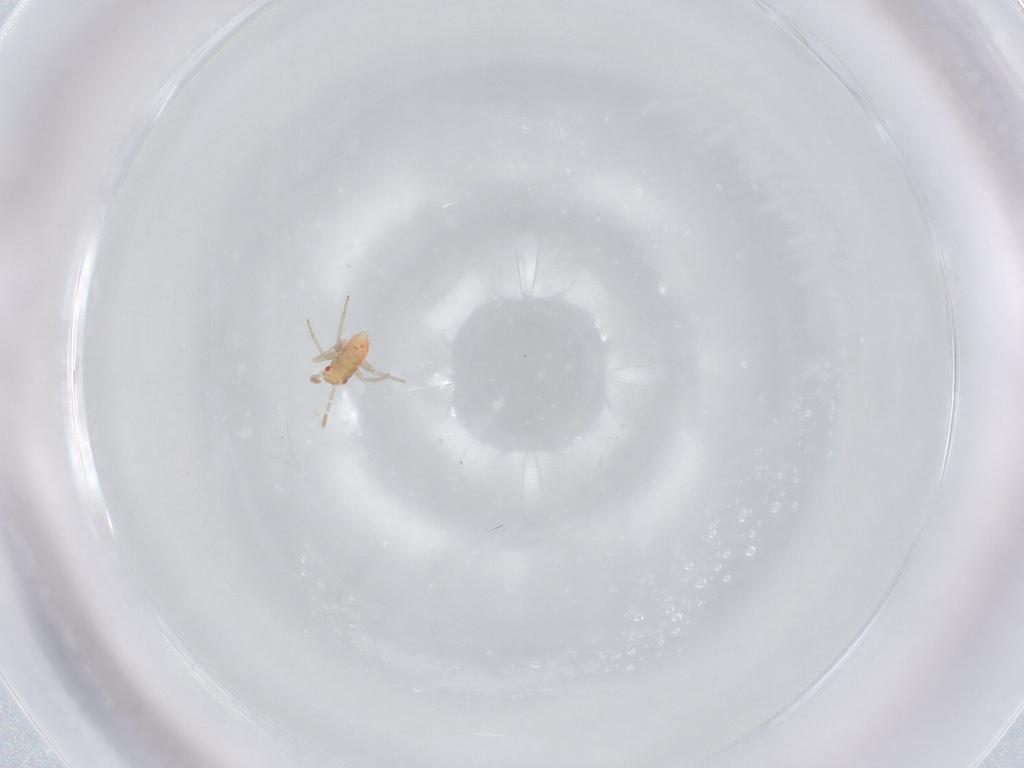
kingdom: Animalia
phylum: Arthropoda
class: Insecta
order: Hemiptera
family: Miridae
